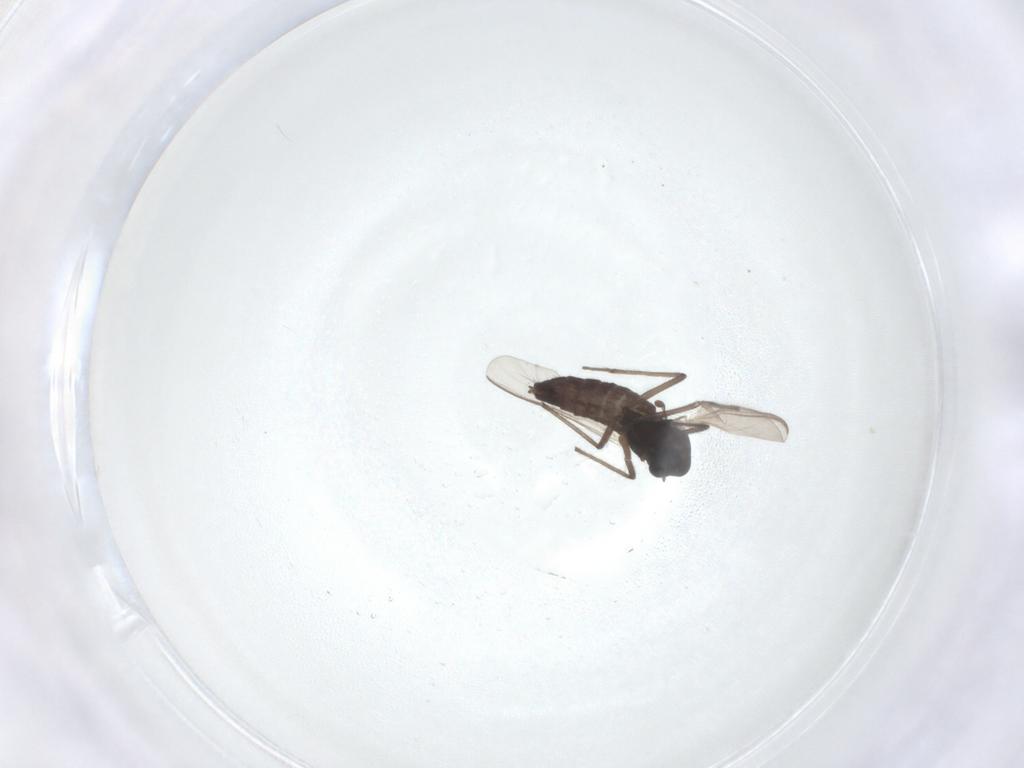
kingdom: Animalia
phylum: Arthropoda
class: Insecta
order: Diptera
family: Chironomidae
